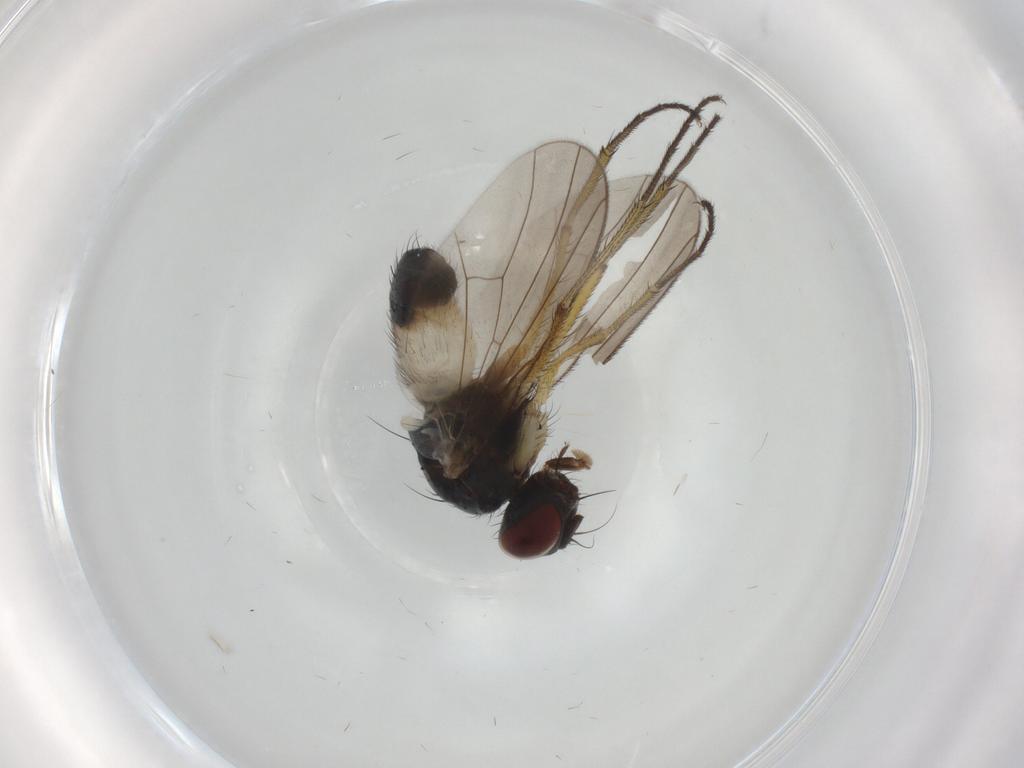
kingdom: Animalia
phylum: Arthropoda
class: Insecta
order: Diptera
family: Muscidae
